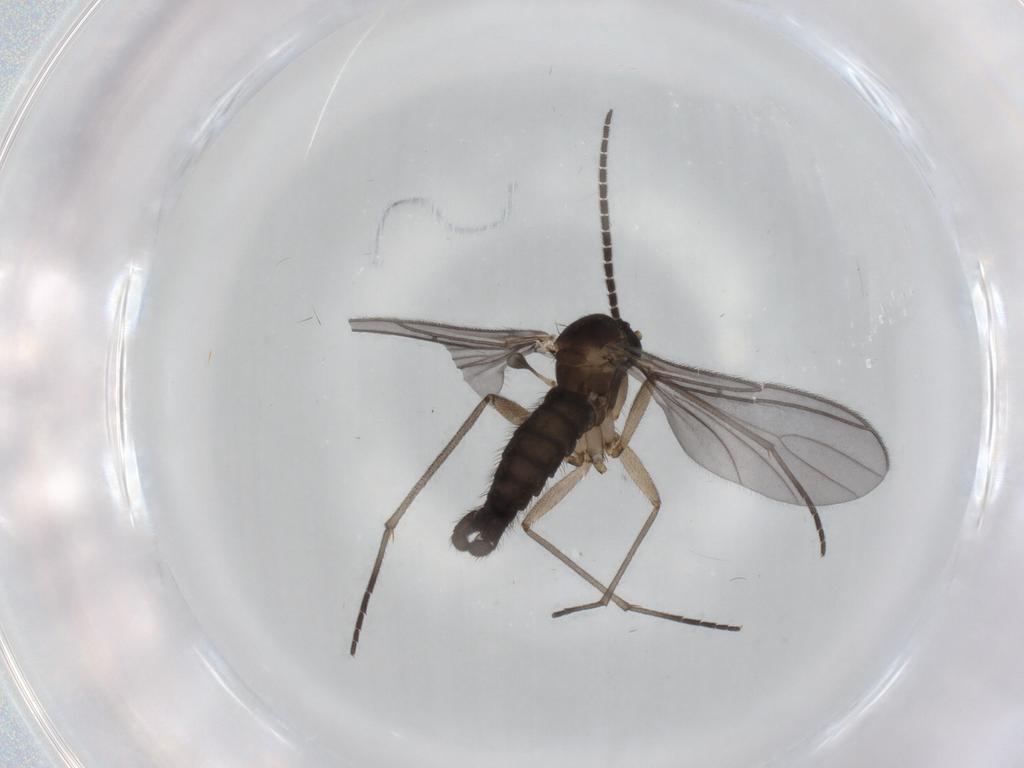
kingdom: Animalia
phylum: Arthropoda
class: Insecta
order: Diptera
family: Sciaridae
